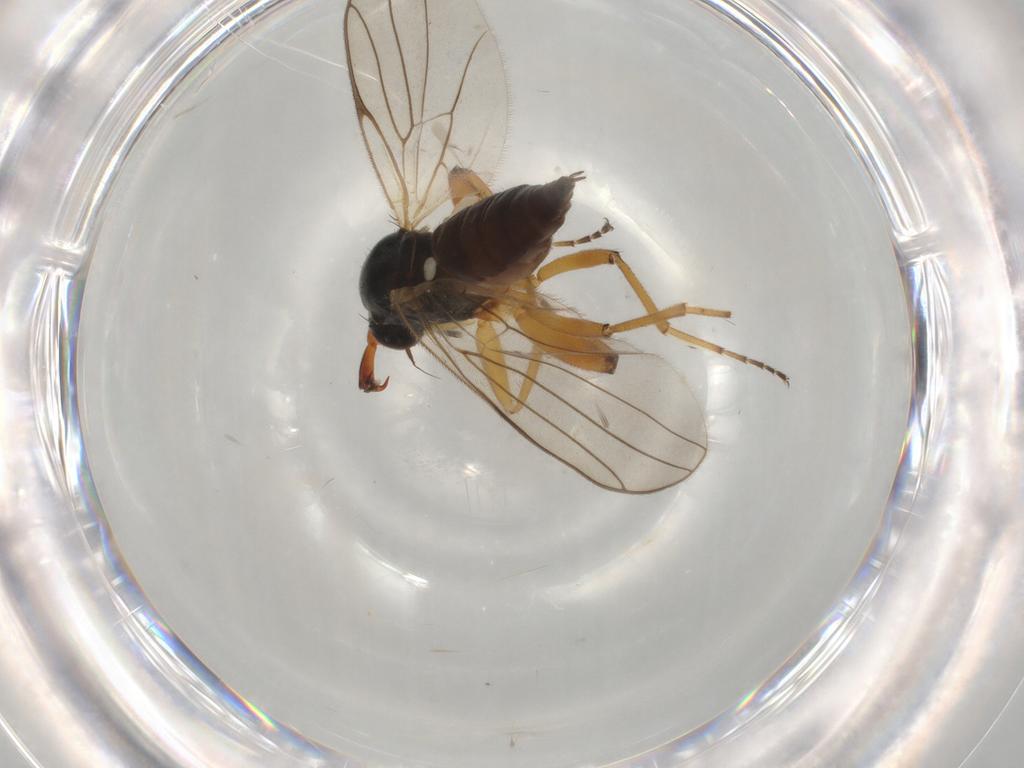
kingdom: Animalia
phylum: Arthropoda
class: Insecta
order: Diptera
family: Hybotidae
